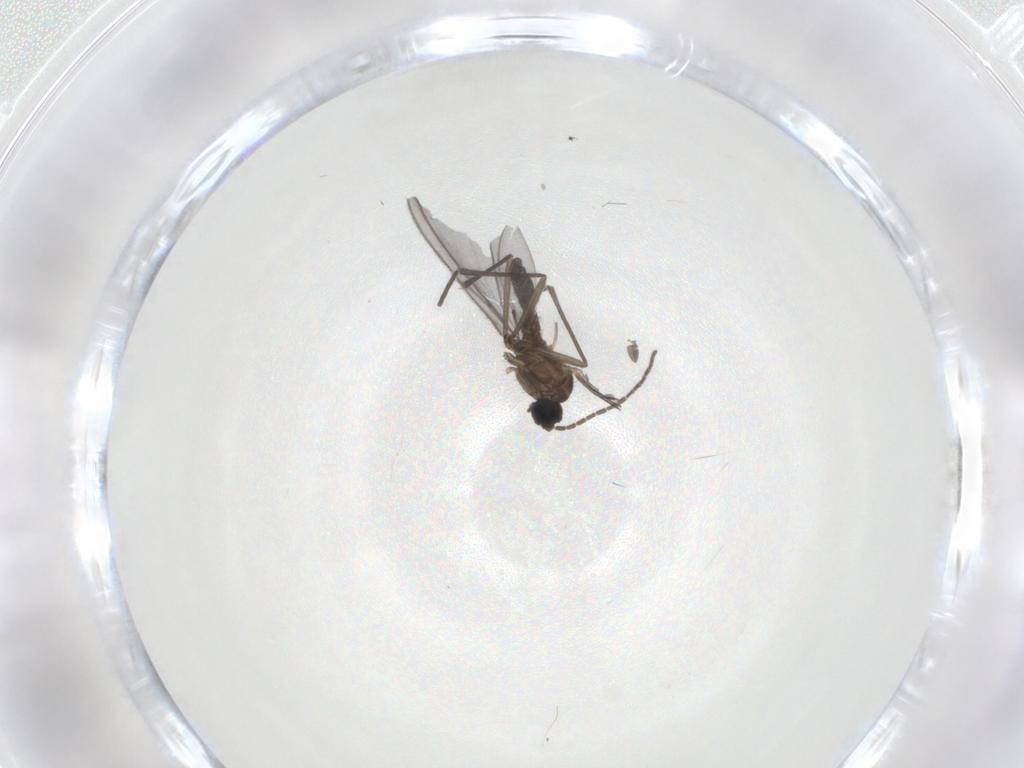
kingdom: Animalia
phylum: Arthropoda
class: Insecta
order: Diptera
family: Sciaridae
